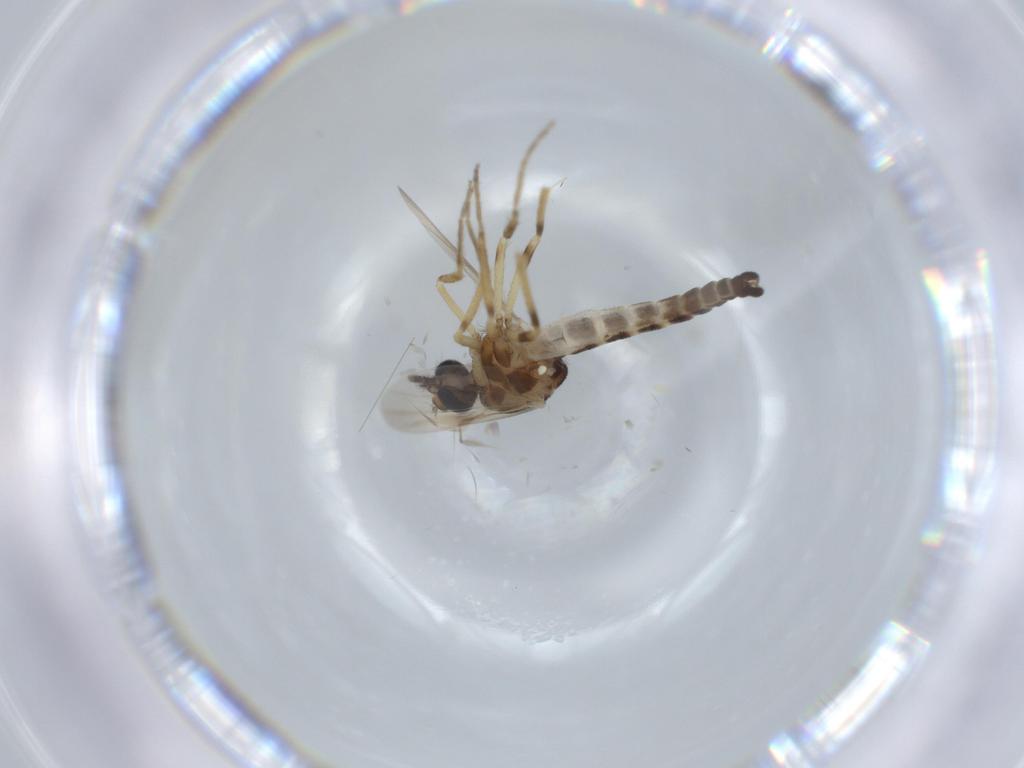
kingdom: Animalia
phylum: Arthropoda
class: Insecta
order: Diptera
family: Ceratopogonidae
